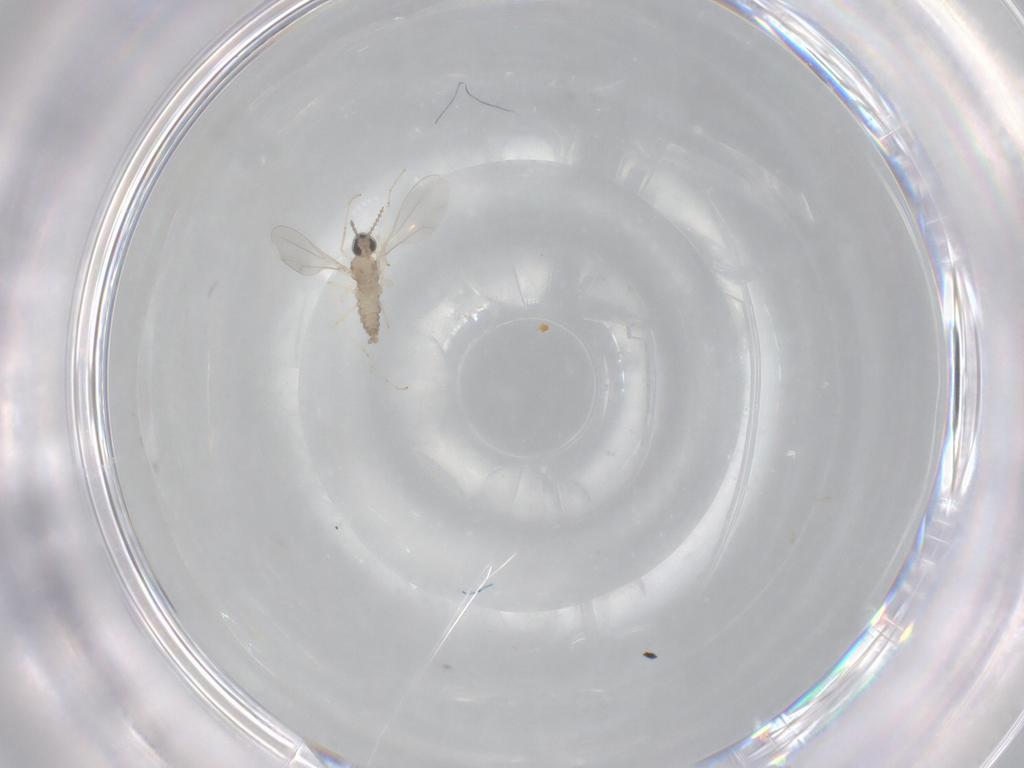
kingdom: Animalia
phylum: Arthropoda
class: Insecta
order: Diptera
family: Cecidomyiidae
